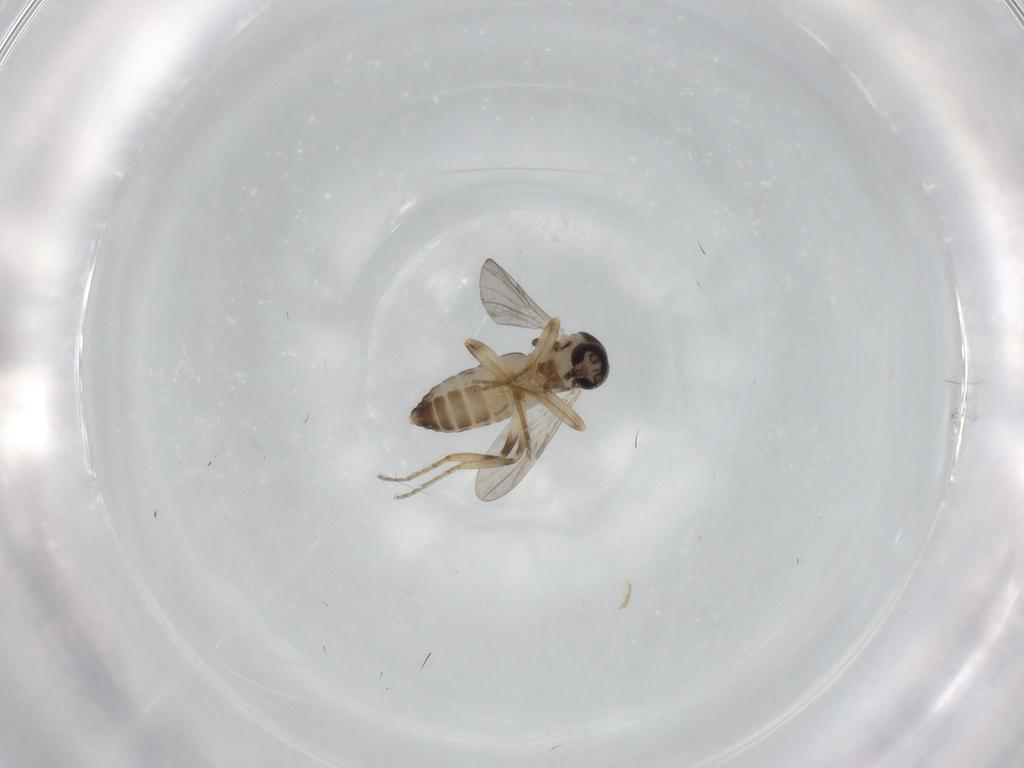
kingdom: Animalia
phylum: Arthropoda
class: Insecta
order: Diptera
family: Ceratopogonidae
